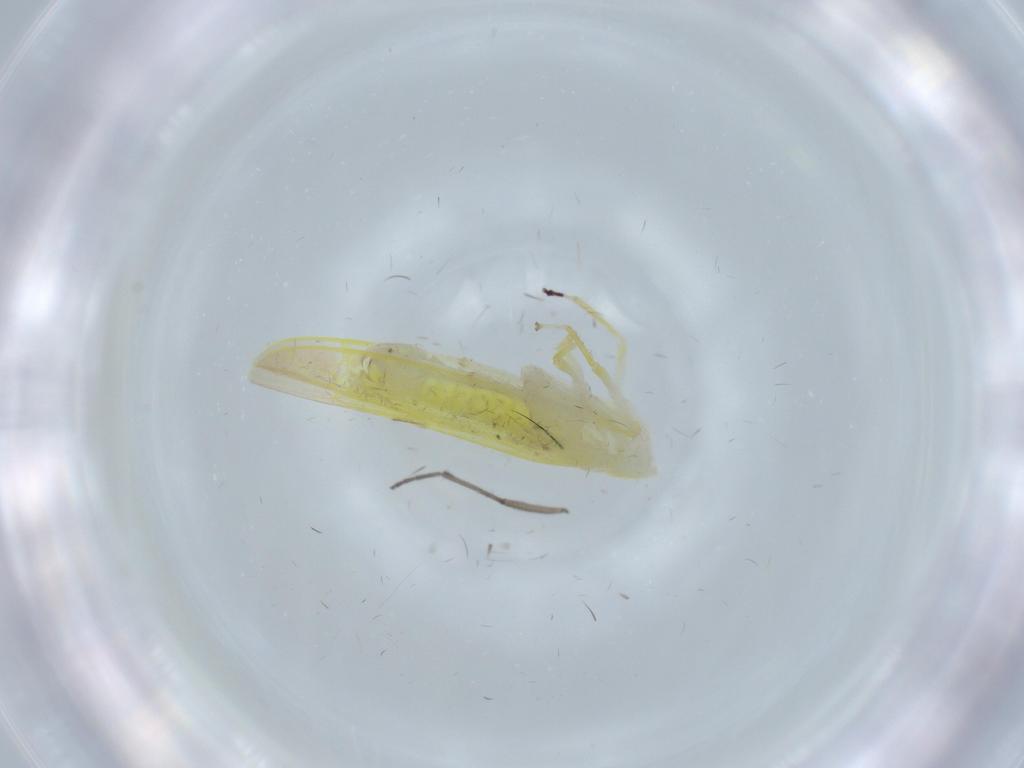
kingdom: Animalia
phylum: Arthropoda
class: Insecta
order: Hemiptera
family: Cicadellidae
